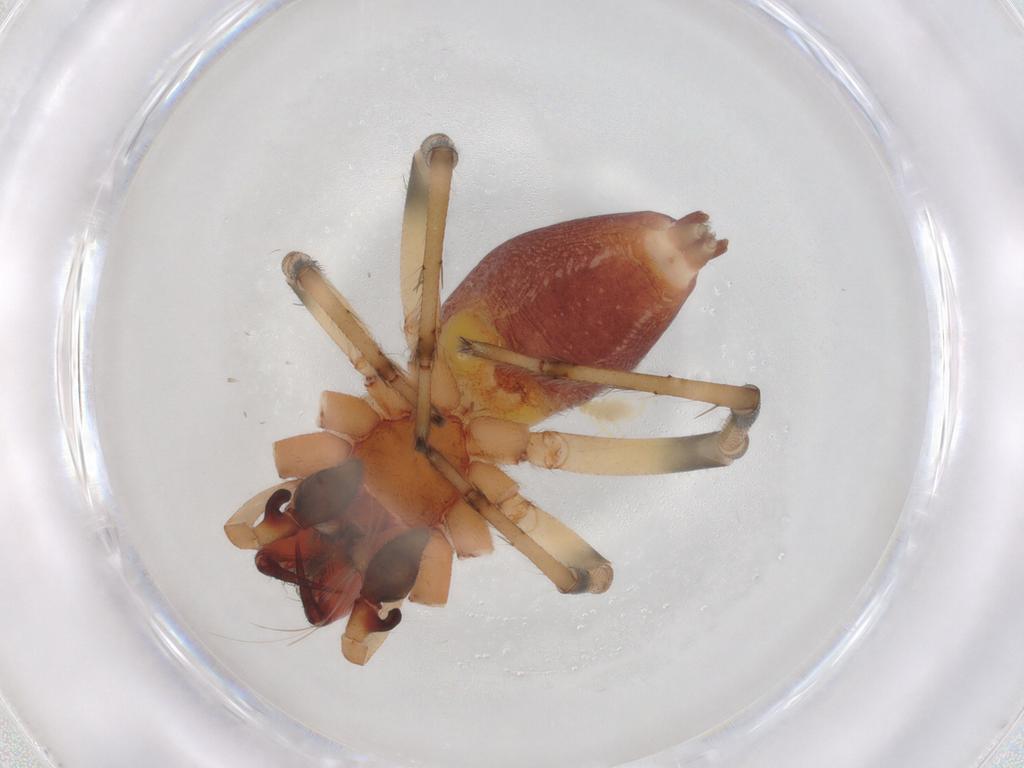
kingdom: Animalia
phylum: Arthropoda
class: Arachnida
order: Araneae
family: Cheiracanthiidae
